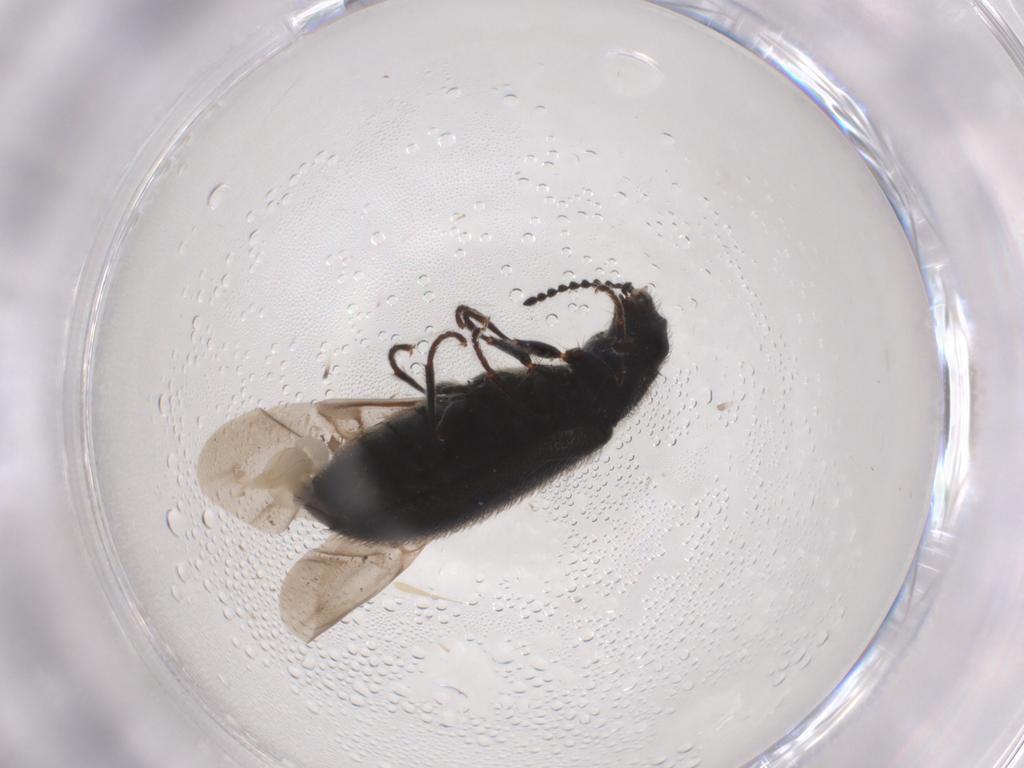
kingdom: Animalia
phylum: Arthropoda
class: Insecta
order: Coleoptera
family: Melyridae
